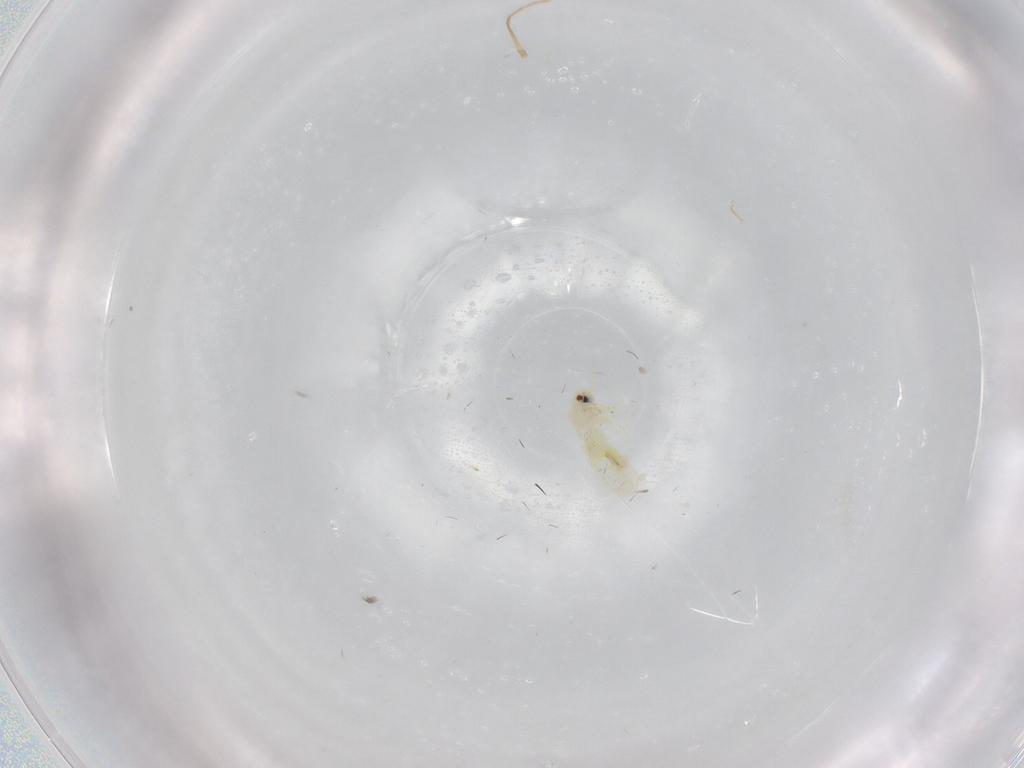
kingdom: Animalia
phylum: Arthropoda
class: Insecta
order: Hemiptera
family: Aleyrodidae
